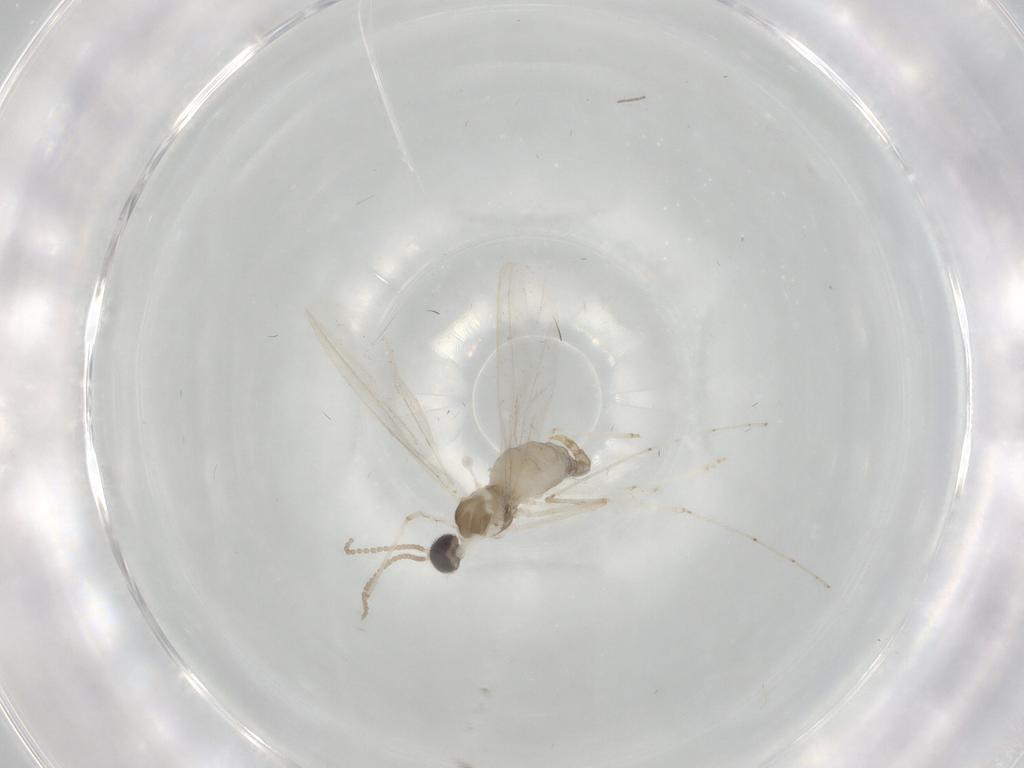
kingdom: Animalia
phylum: Arthropoda
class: Insecta
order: Diptera
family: Cecidomyiidae
